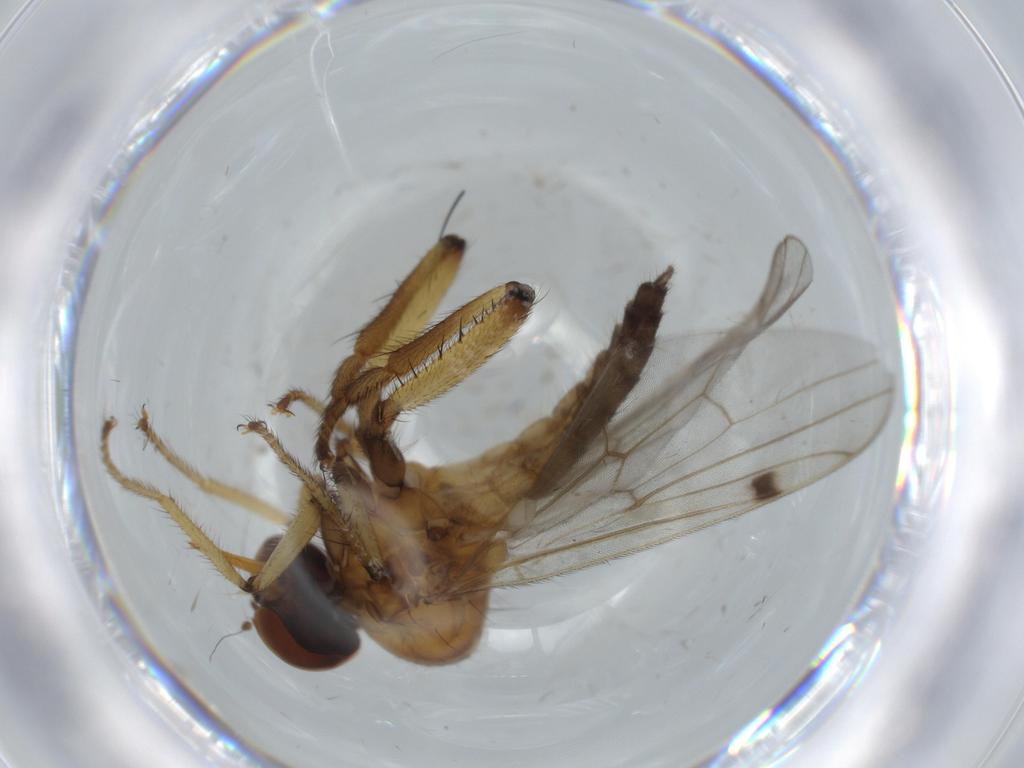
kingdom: Animalia
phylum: Arthropoda
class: Insecta
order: Diptera
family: Hybotidae
